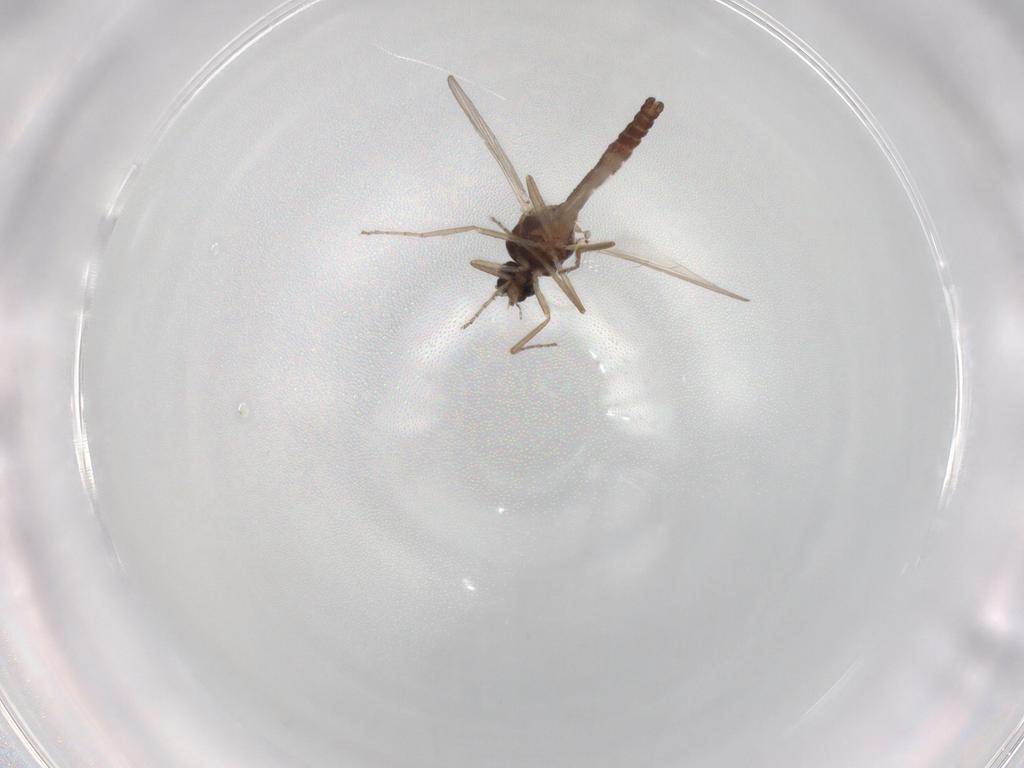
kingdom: Animalia
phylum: Arthropoda
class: Insecta
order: Diptera
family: Ceratopogonidae
